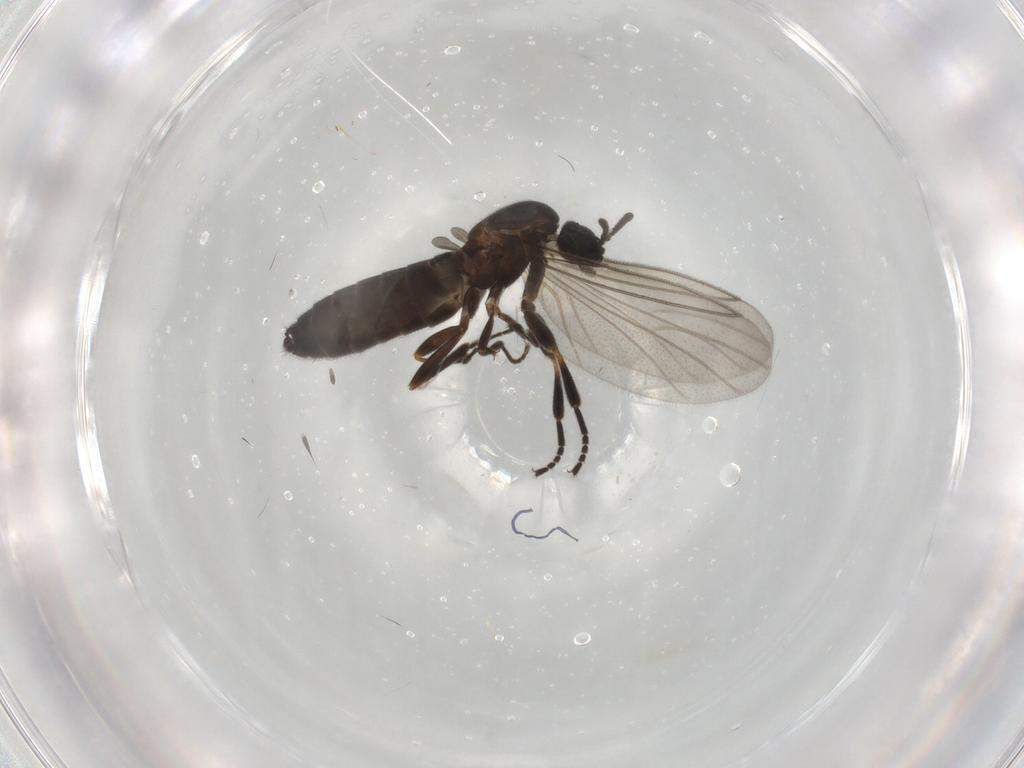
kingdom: Animalia
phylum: Arthropoda
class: Insecta
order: Diptera
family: Scatopsidae
